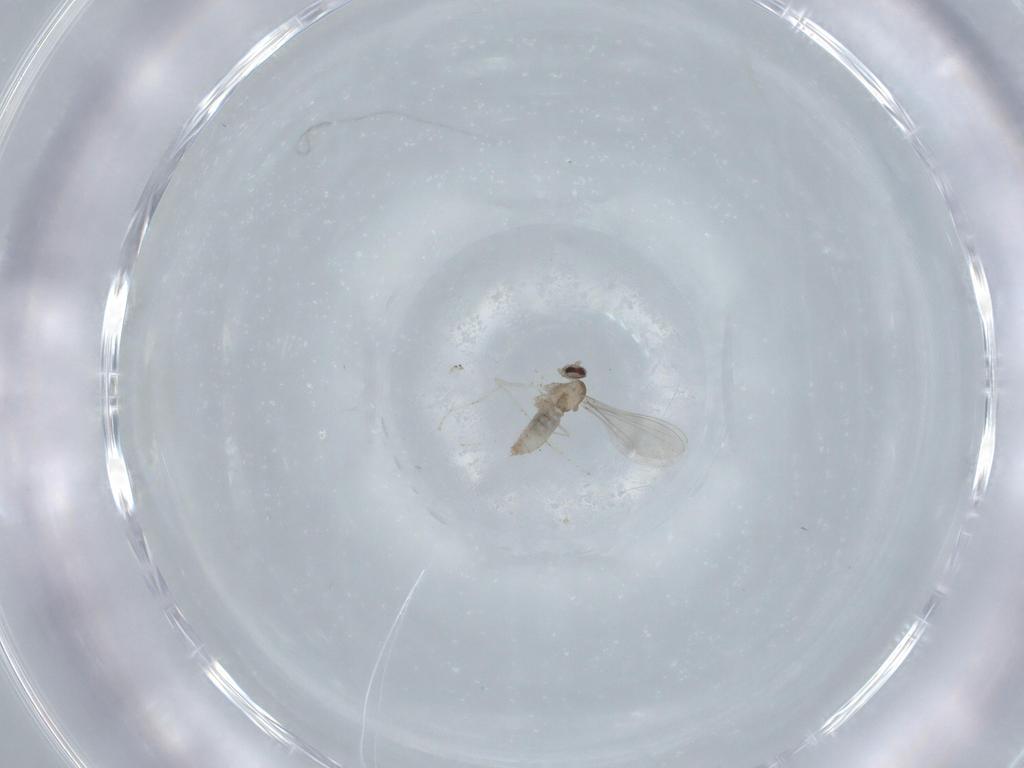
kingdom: Animalia
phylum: Arthropoda
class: Insecta
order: Diptera
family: Cecidomyiidae
